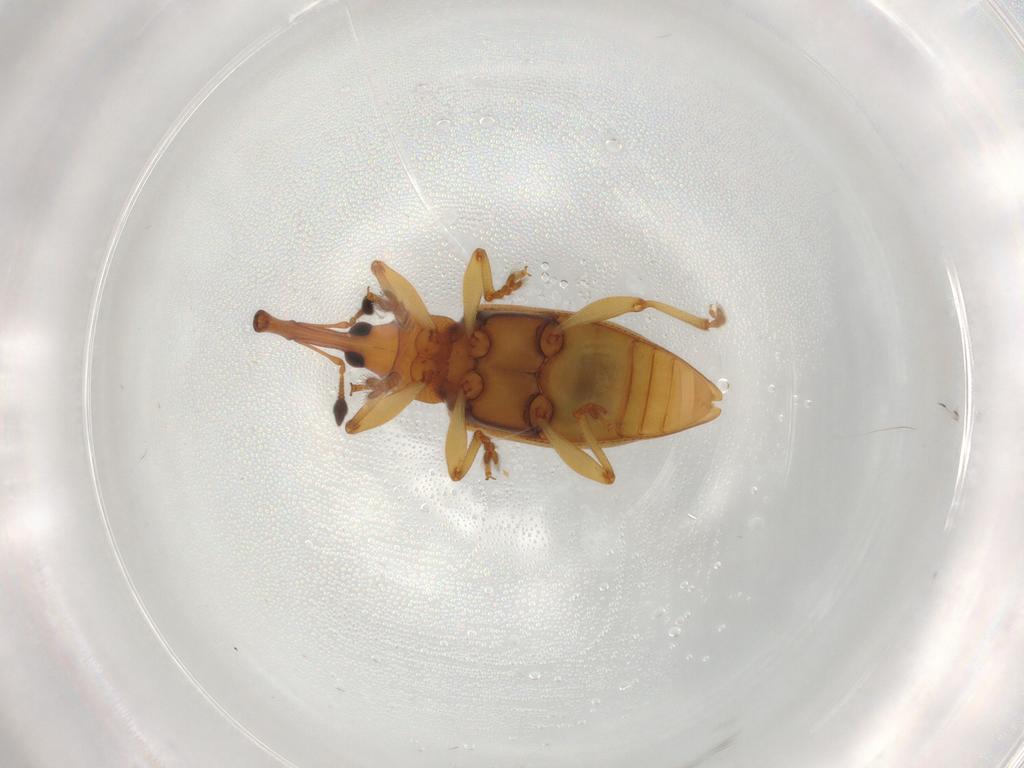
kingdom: Animalia
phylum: Arthropoda
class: Insecta
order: Coleoptera
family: Curculionidae
